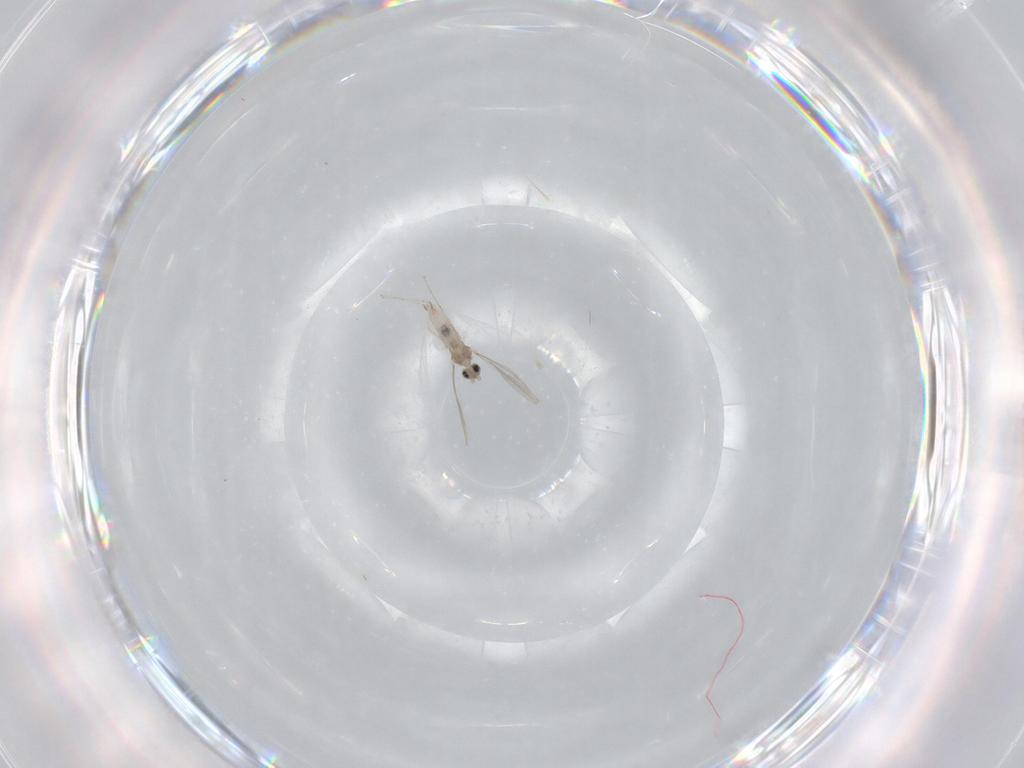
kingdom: Animalia
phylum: Arthropoda
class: Insecta
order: Diptera
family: Cecidomyiidae
